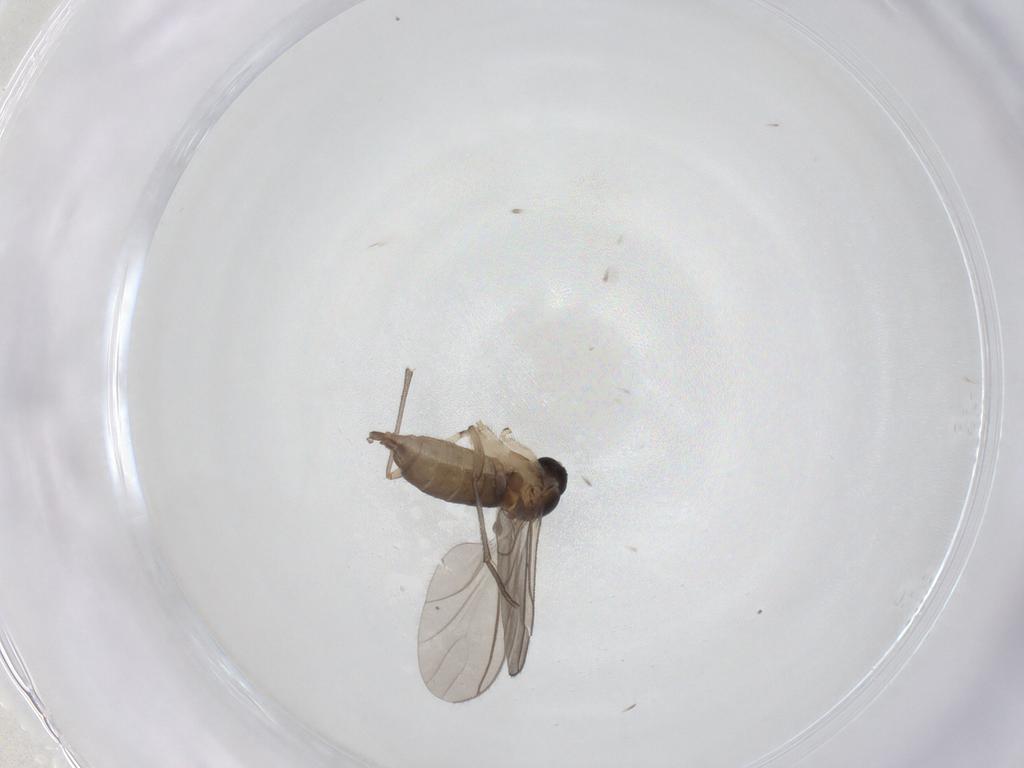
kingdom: Animalia
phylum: Arthropoda
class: Insecta
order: Diptera
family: Sciaridae
